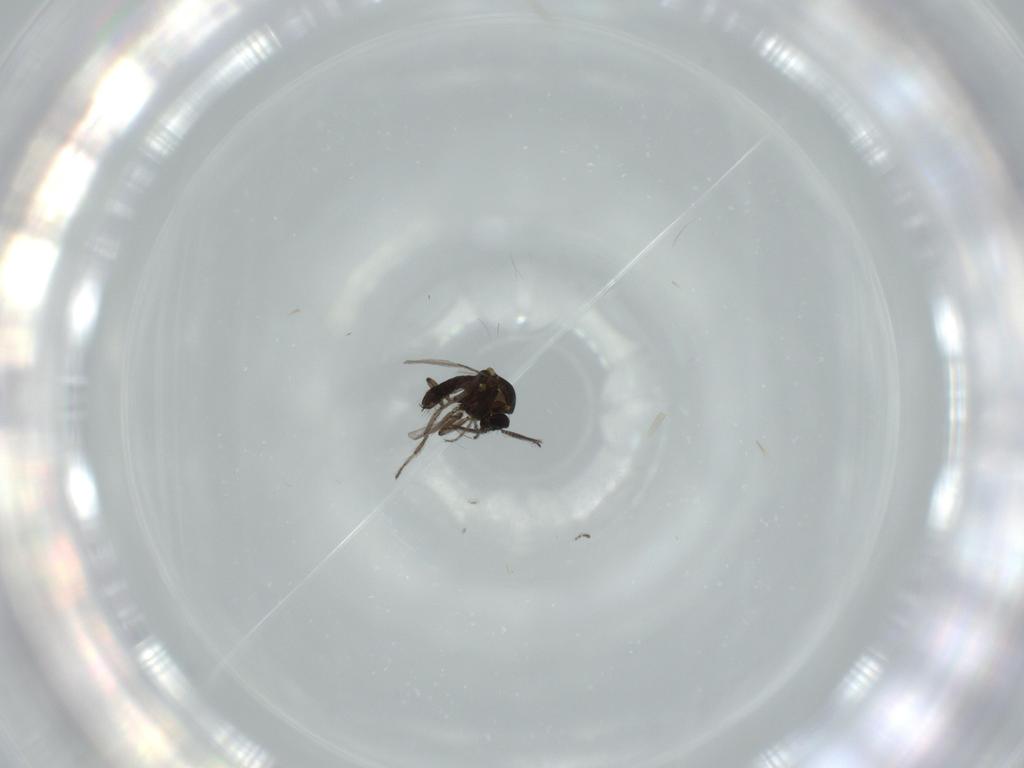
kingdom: Animalia
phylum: Arthropoda
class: Insecta
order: Diptera
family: Ceratopogonidae
